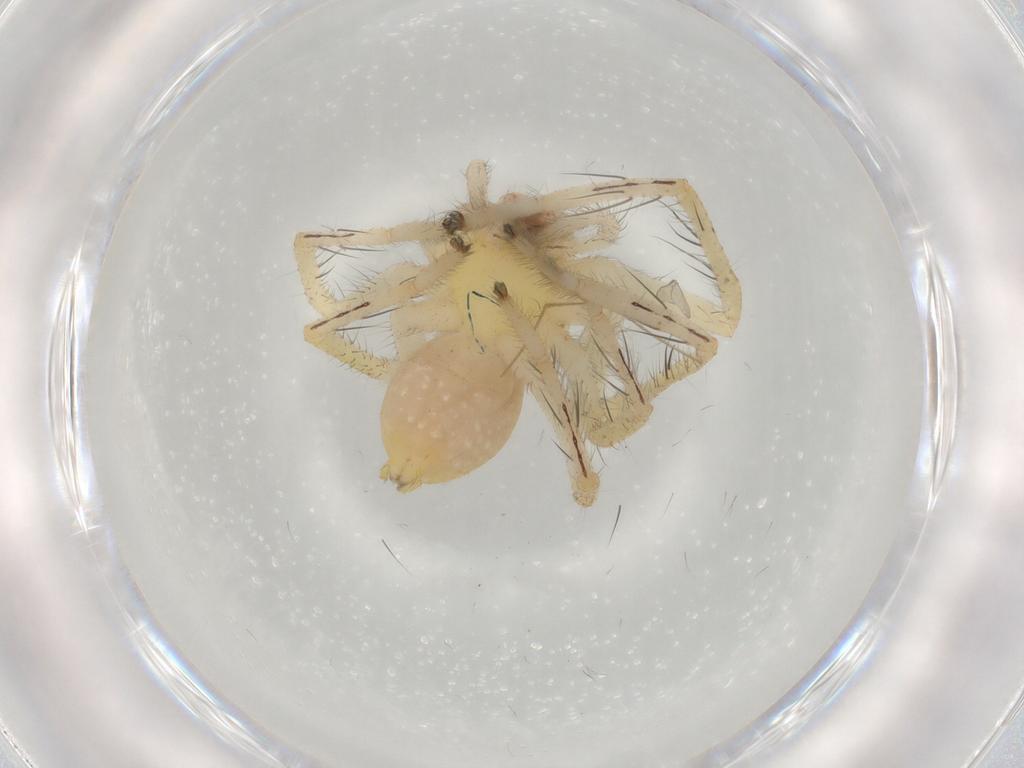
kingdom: Animalia
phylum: Arthropoda
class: Arachnida
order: Araneae
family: Sparassidae
